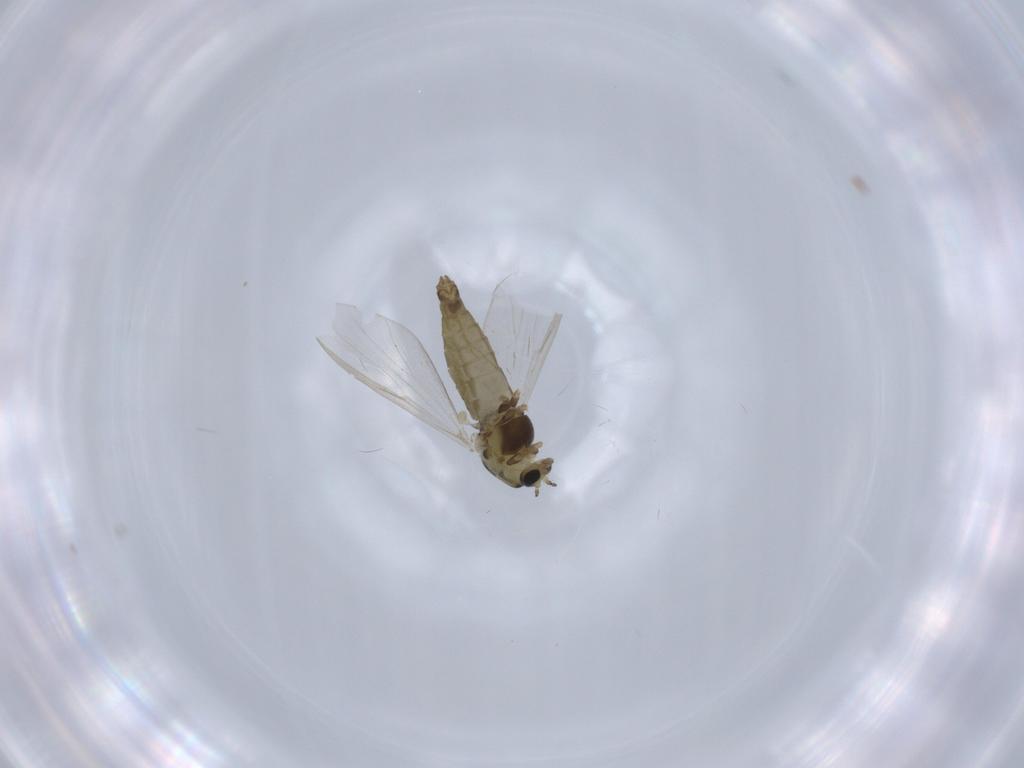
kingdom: Animalia
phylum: Arthropoda
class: Insecta
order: Diptera
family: Chironomidae
